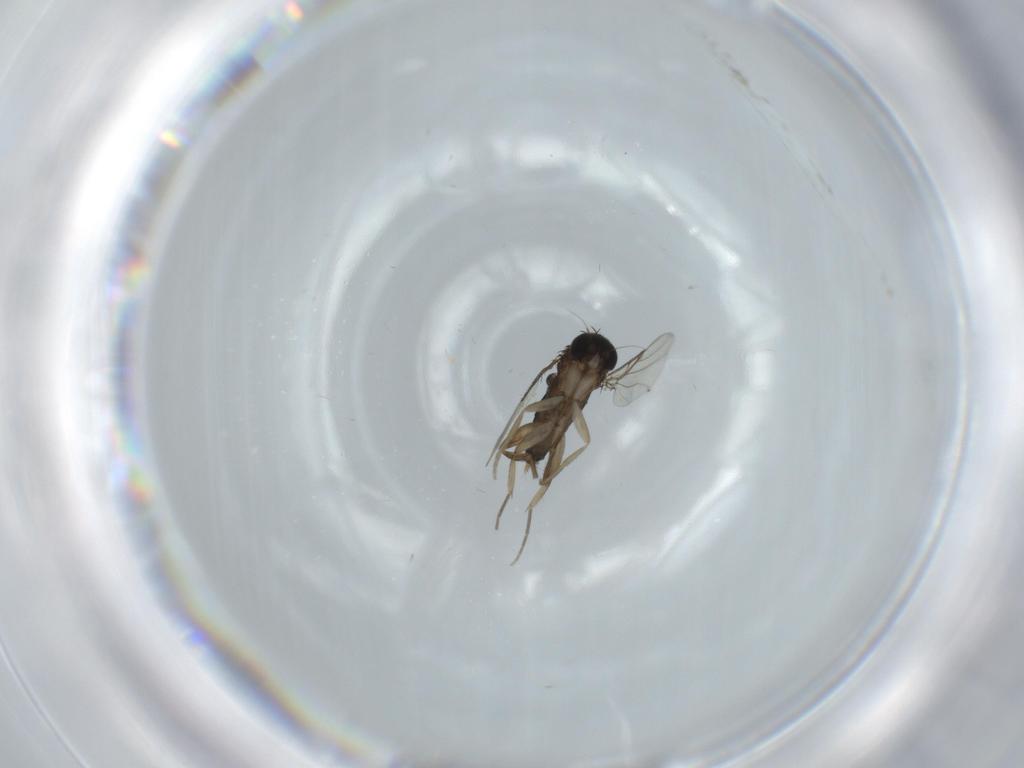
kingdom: Animalia
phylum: Arthropoda
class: Insecta
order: Diptera
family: Phoridae
